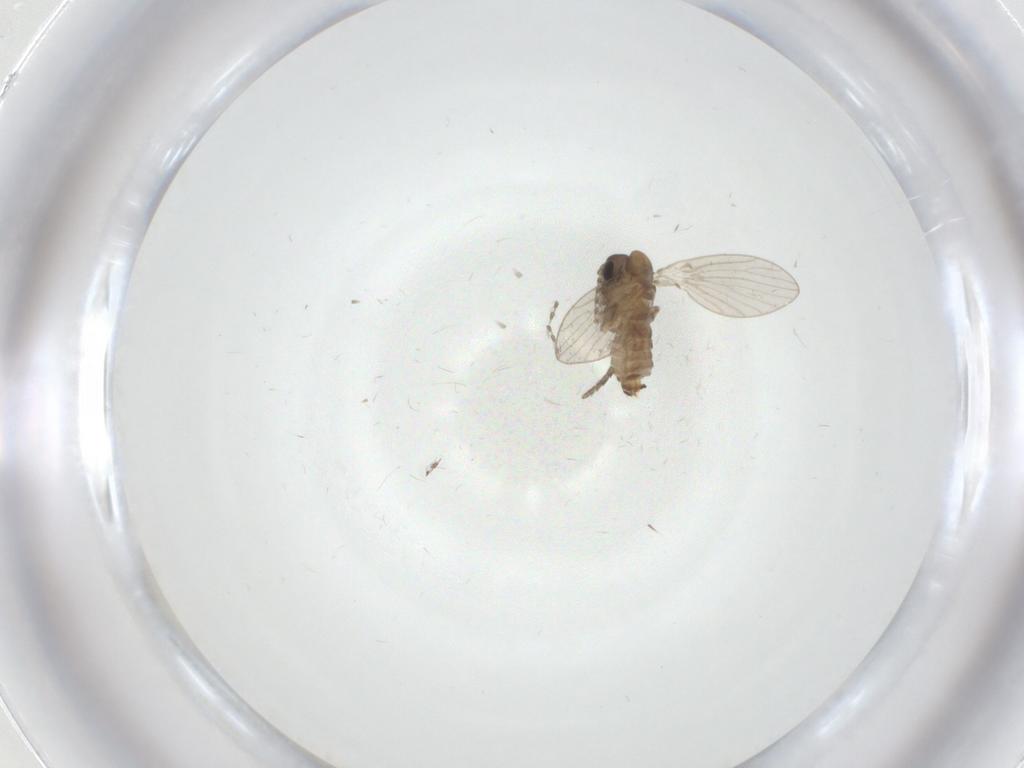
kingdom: Animalia
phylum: Arthropoda
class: Insecta
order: Diptera
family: Psychodidae
